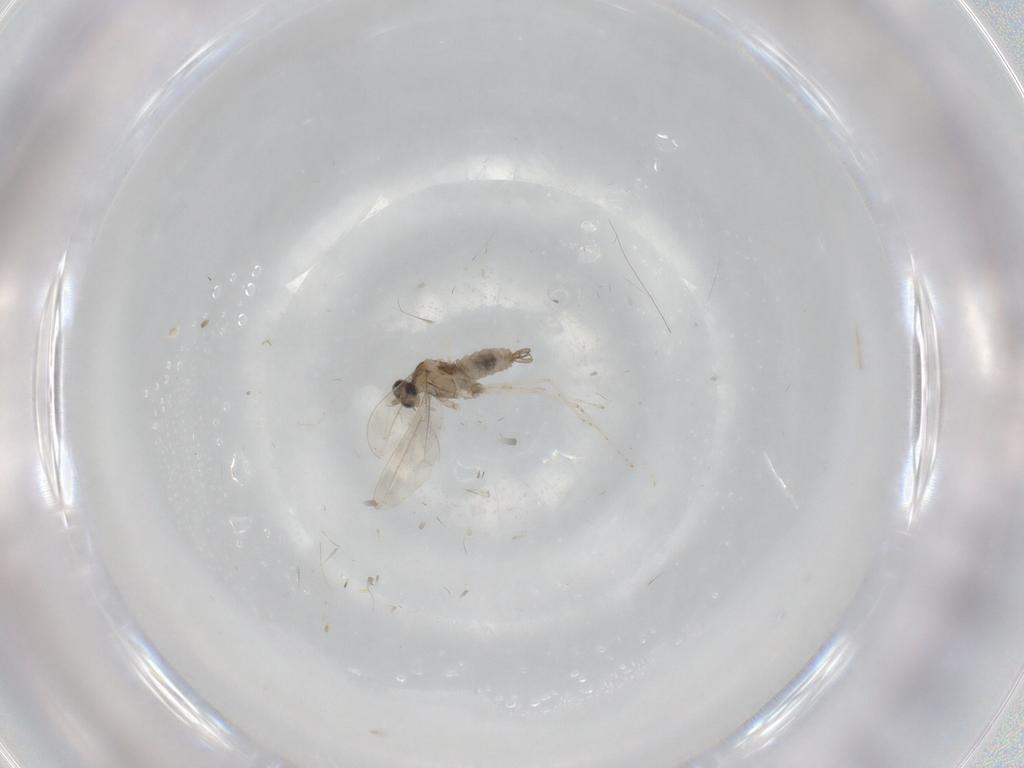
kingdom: Animalia
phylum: Arthropoda
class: Insecta
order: Diptera
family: Cecidomyiidae
